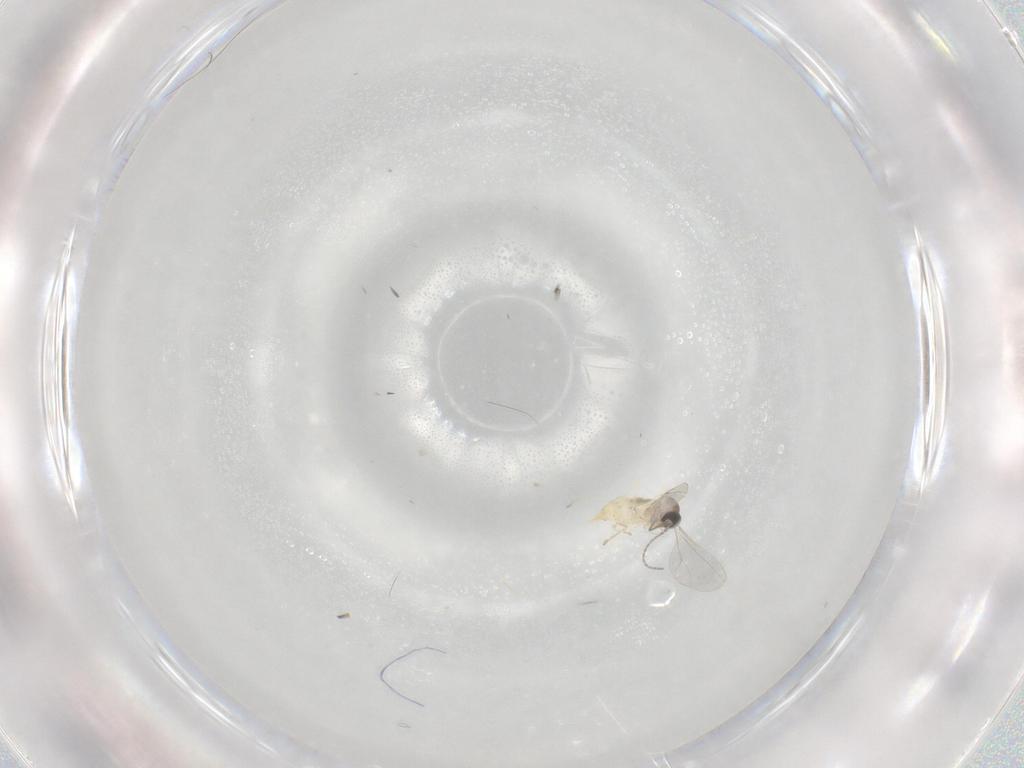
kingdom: Animalia
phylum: Arthropoda
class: Insecta
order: Diptera
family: Cecidomyiidae
